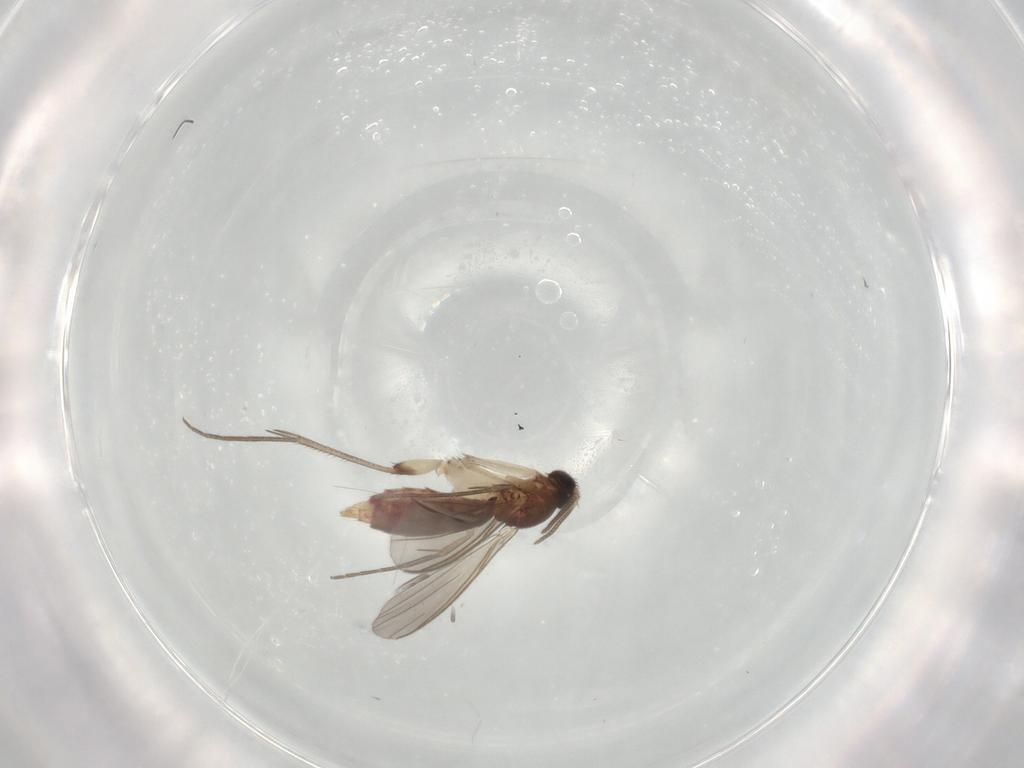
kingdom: Animalia
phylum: Arthropoda
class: Insecta
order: Diptera
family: Mycetophilidae
